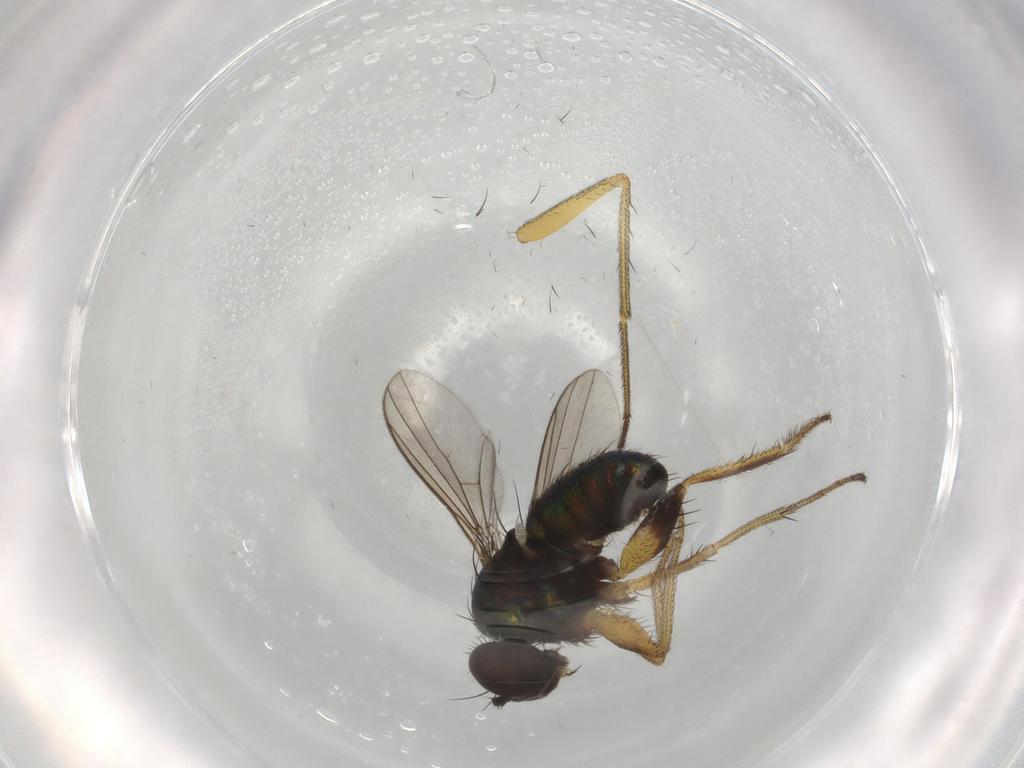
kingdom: Animalia
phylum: Arthropoda
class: Insecta
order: Diptera
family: Dolichopodidae
